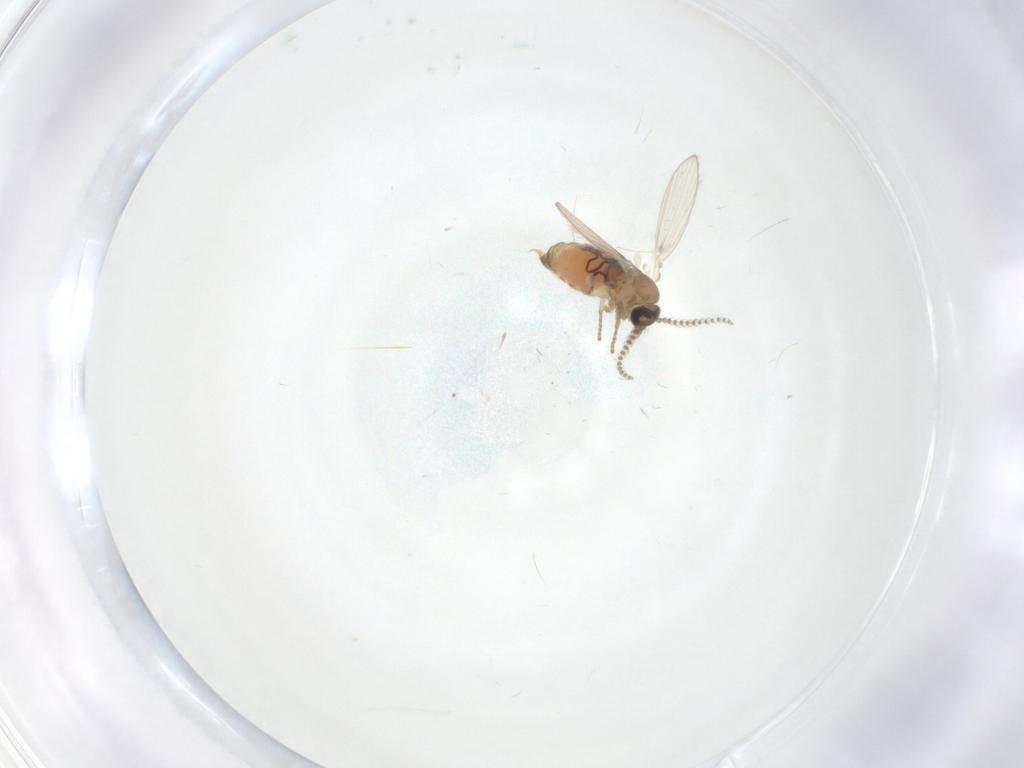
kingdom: Animalia
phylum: Arthropoda
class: Insecta
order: Diptera
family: Psychodidae
